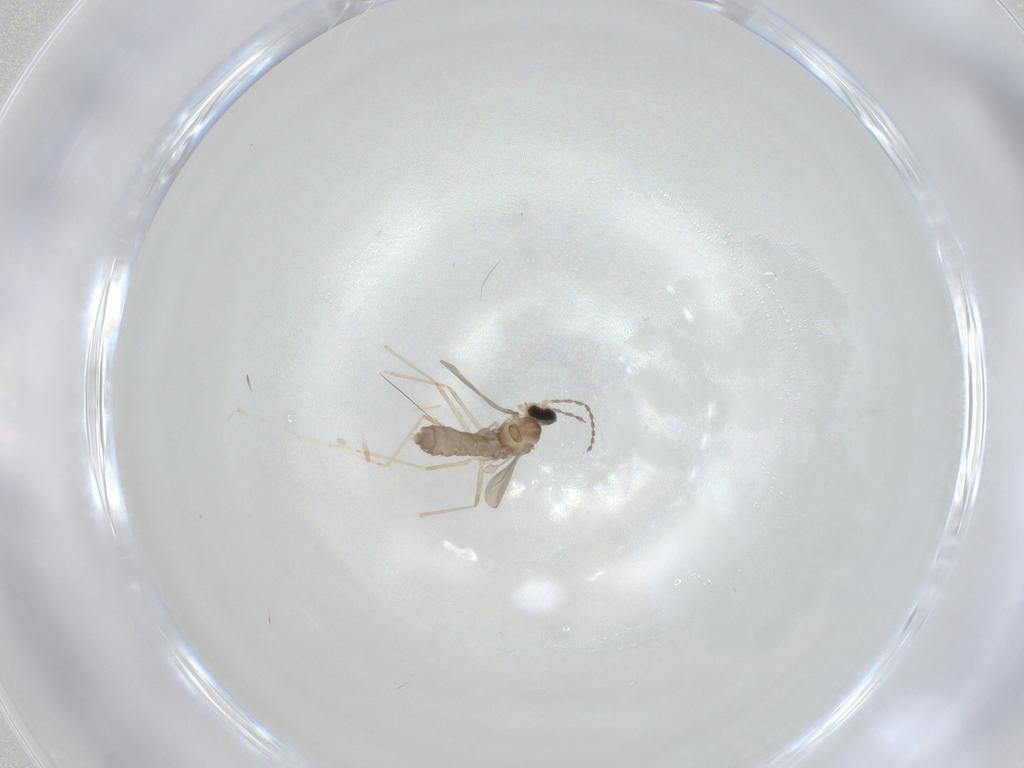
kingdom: Animalia
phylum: Arthropoda
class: Insecta
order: Diptera
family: Cecidomyiidae
